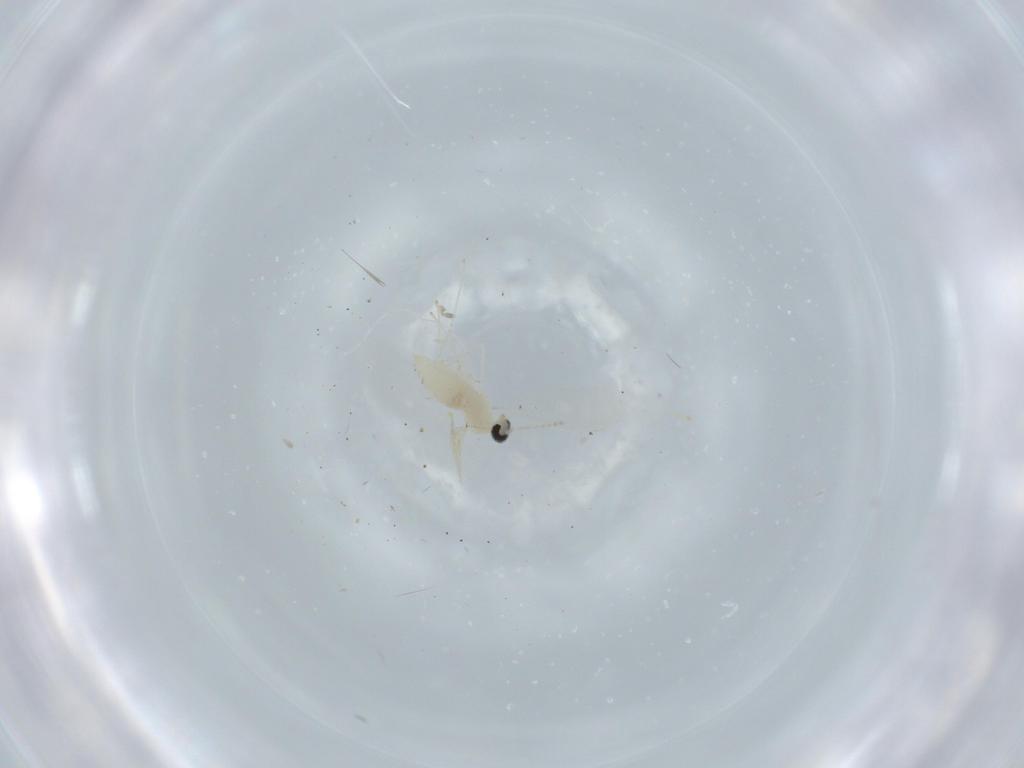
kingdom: Animalia
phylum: Arthropoda
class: Insecta
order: Diptera
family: Cecidomyiidae
